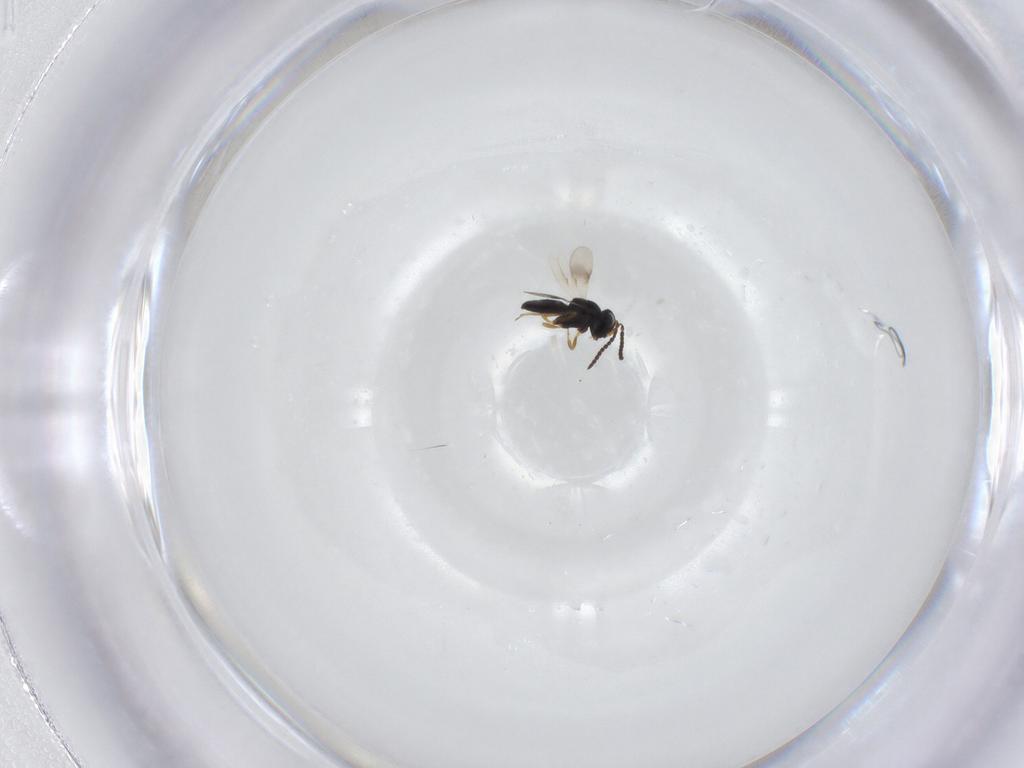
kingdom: Animalia
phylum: Arthropoda
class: Insecta
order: Hymenoptera
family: Scelionidae
